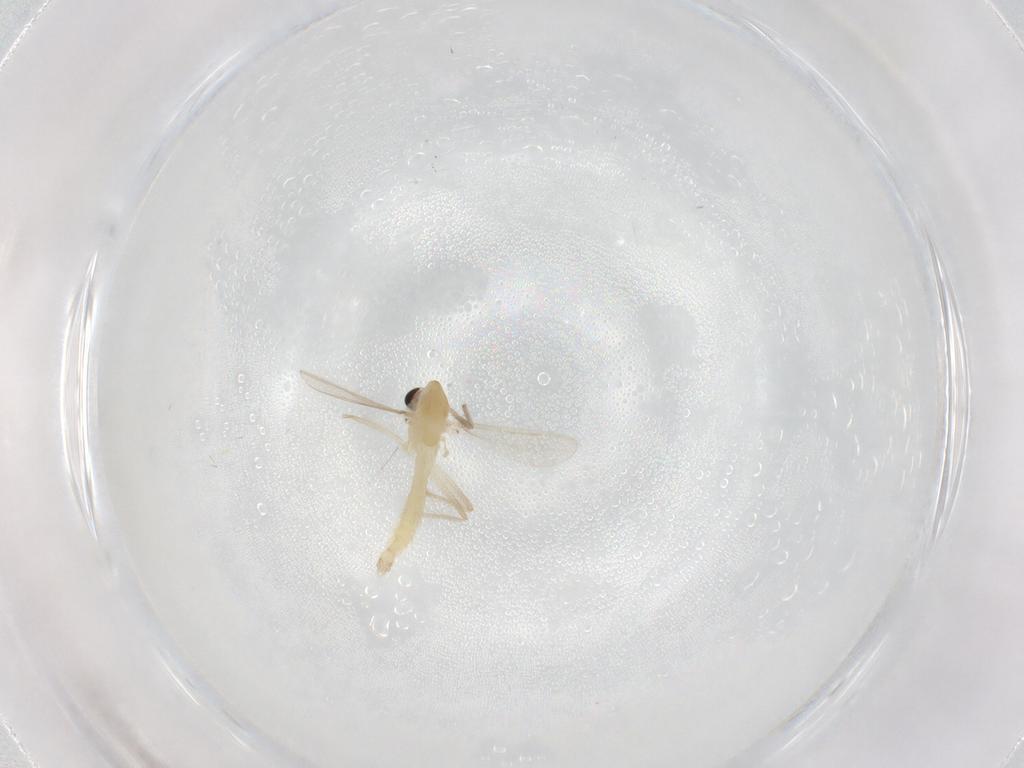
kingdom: Animalia
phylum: Arthropoda
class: Insecta
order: Diptera
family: Chironomidae
